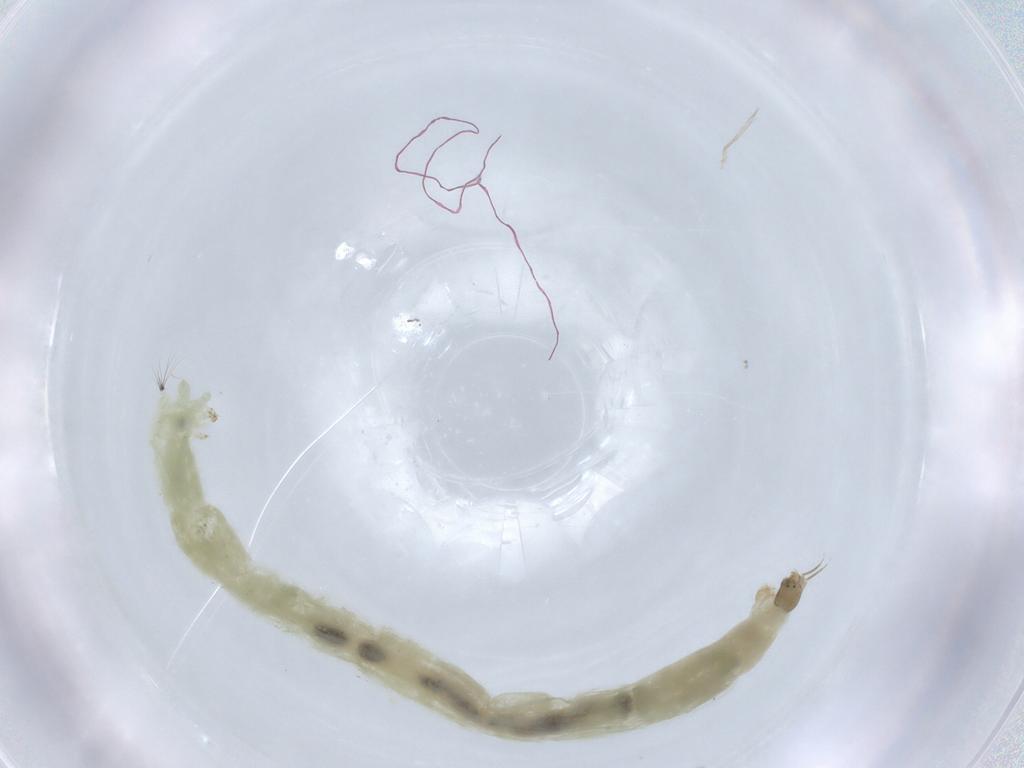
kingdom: Animalia
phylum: Arthropoda
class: Insecta
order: Diptera
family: Chironomidae
